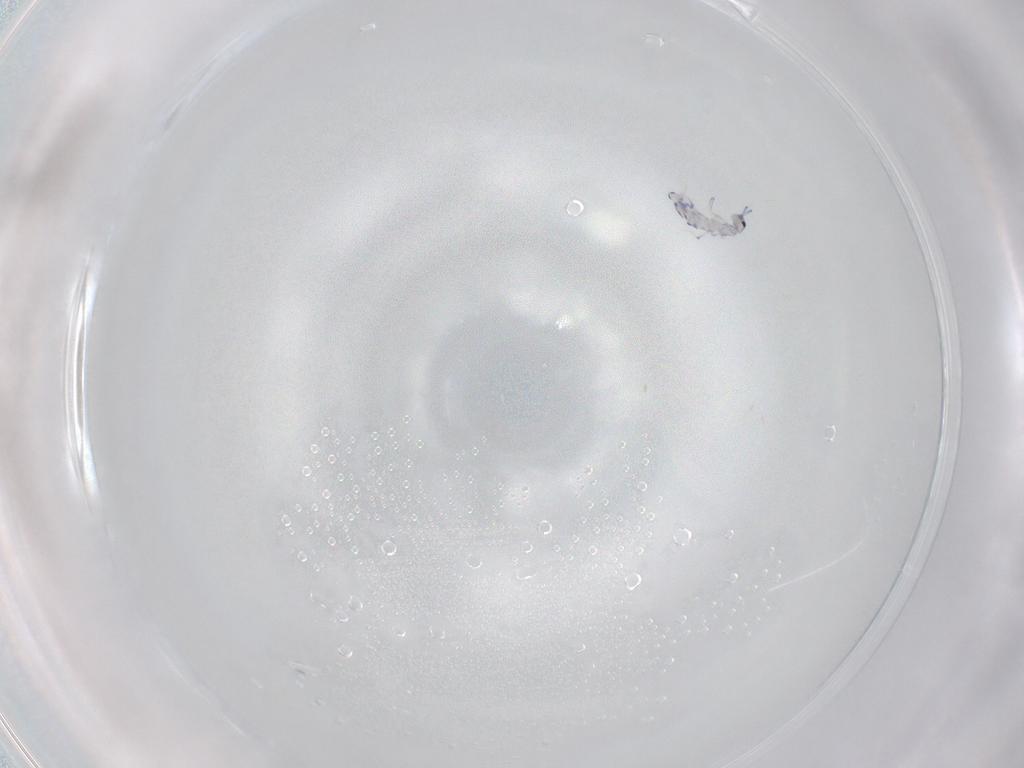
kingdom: Animalia
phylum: Arthropoda
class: Collembola
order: Entomobryomorpha
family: Entomobryidae
